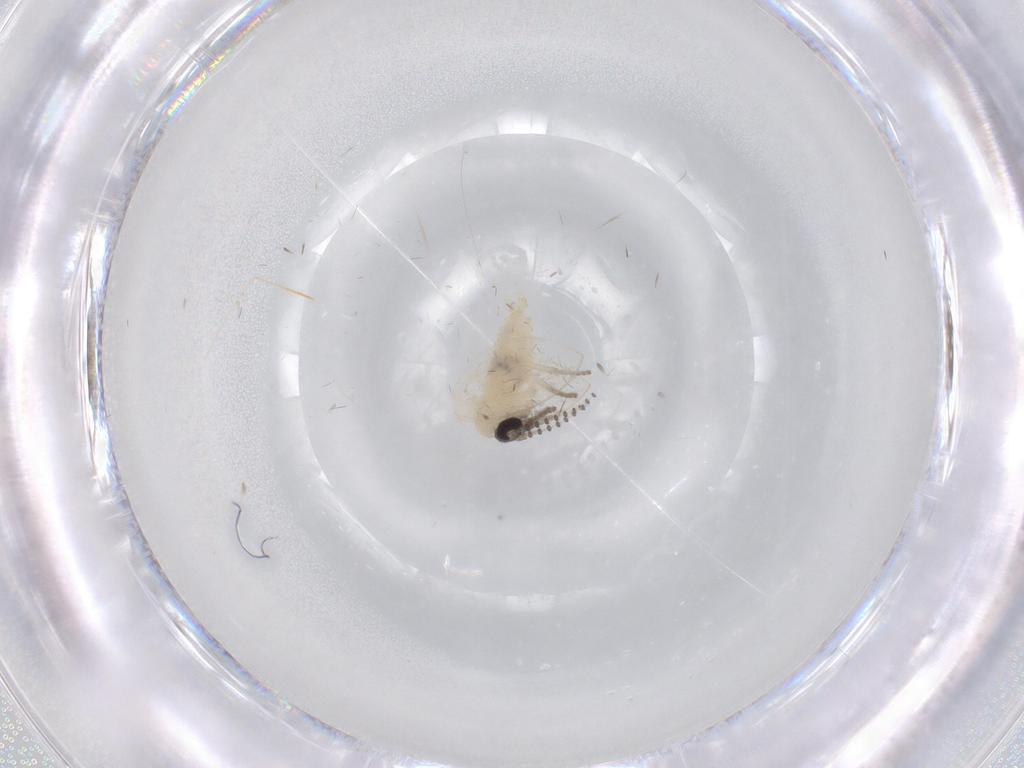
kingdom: Animalia
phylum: Arthropoda
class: Insecta
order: Diptera
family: Psychodidae
